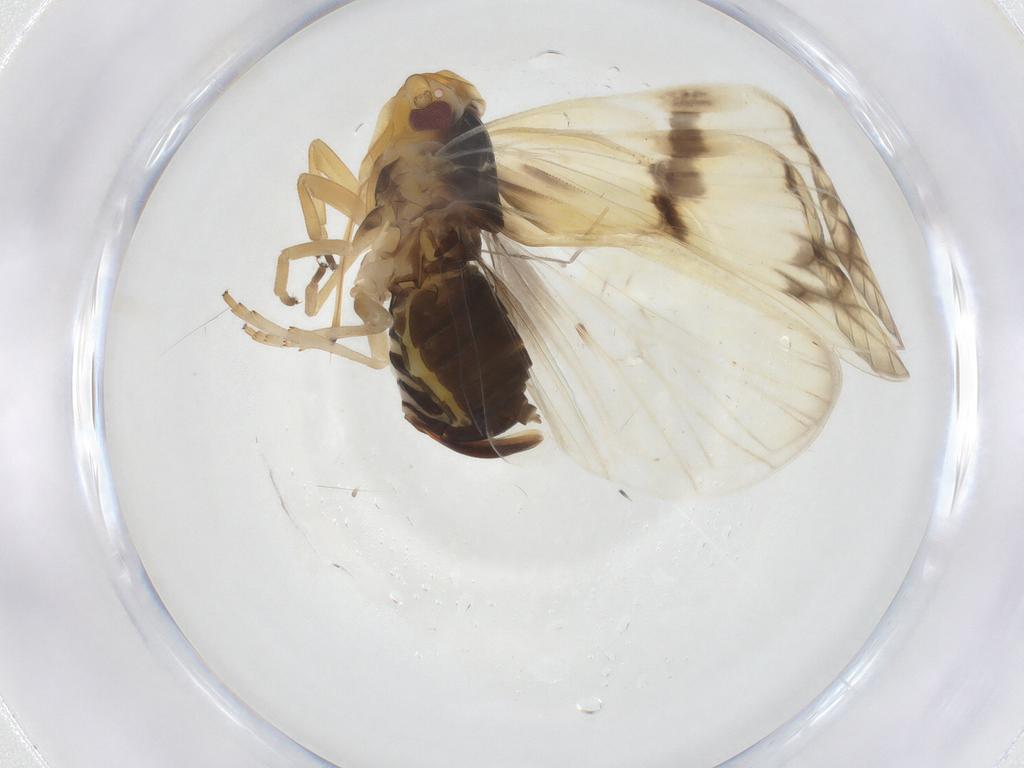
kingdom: Animalia
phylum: Arthropoda
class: Insecta
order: Hemiptera
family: Cixiidae
